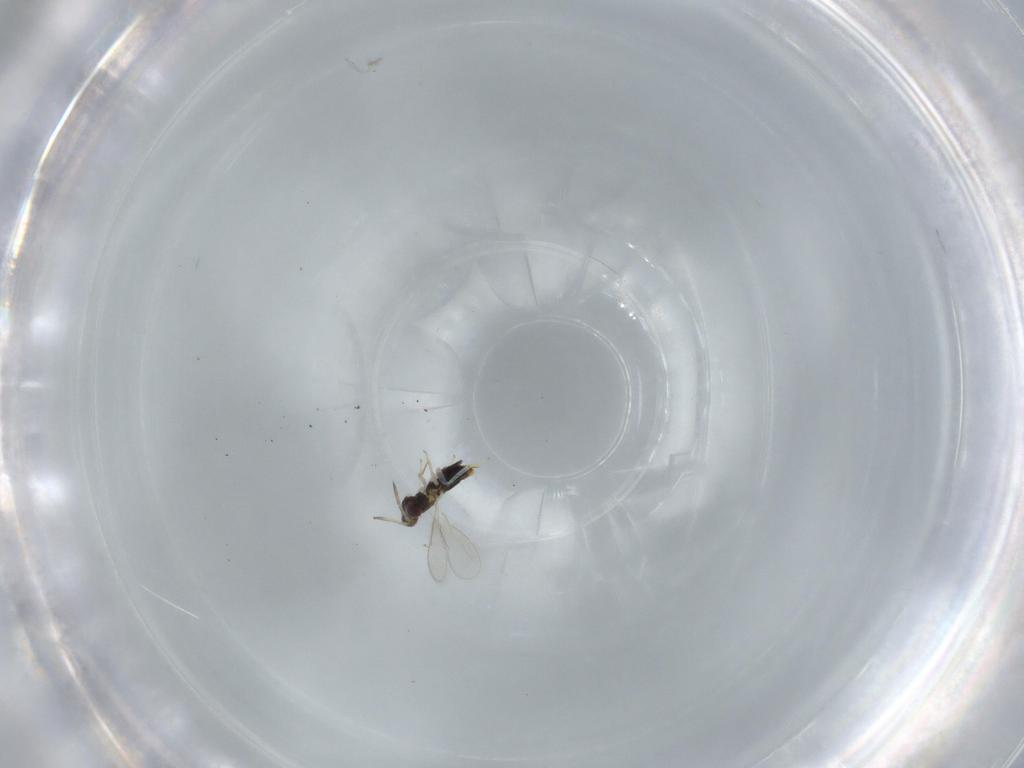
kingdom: Animalia
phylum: Arthropoda
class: Insecta
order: Hymenoptera
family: Aphelinidae
